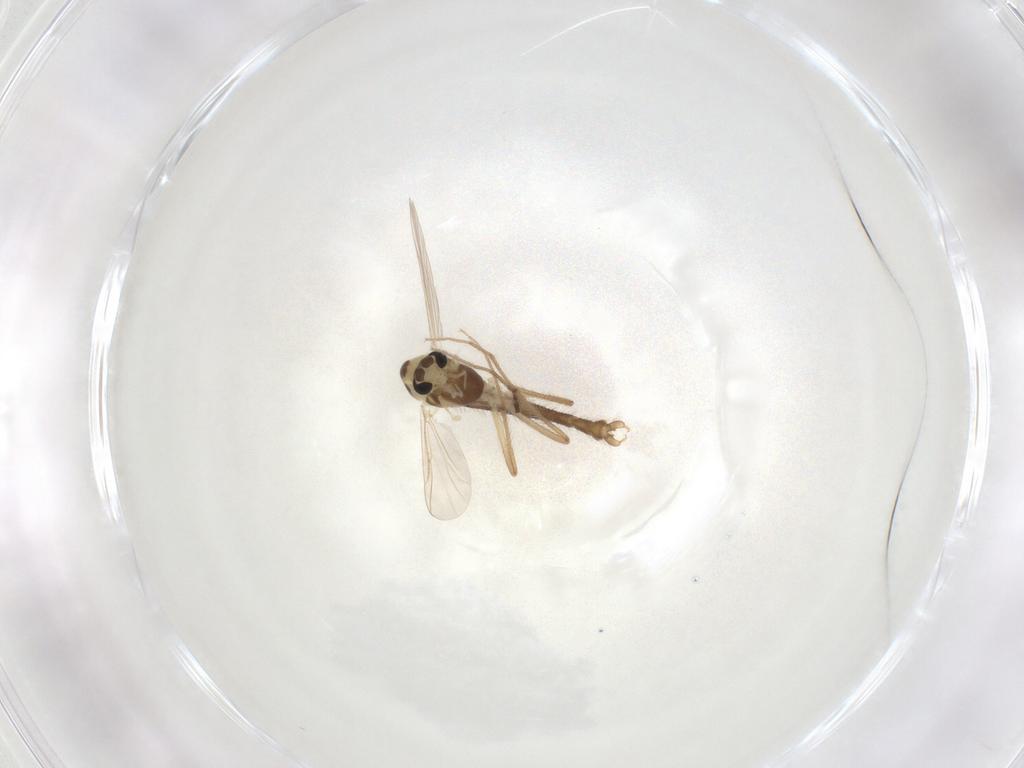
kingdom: Animalia
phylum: Arthropoda
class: Insecta
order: Diptera
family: Chironomidae
